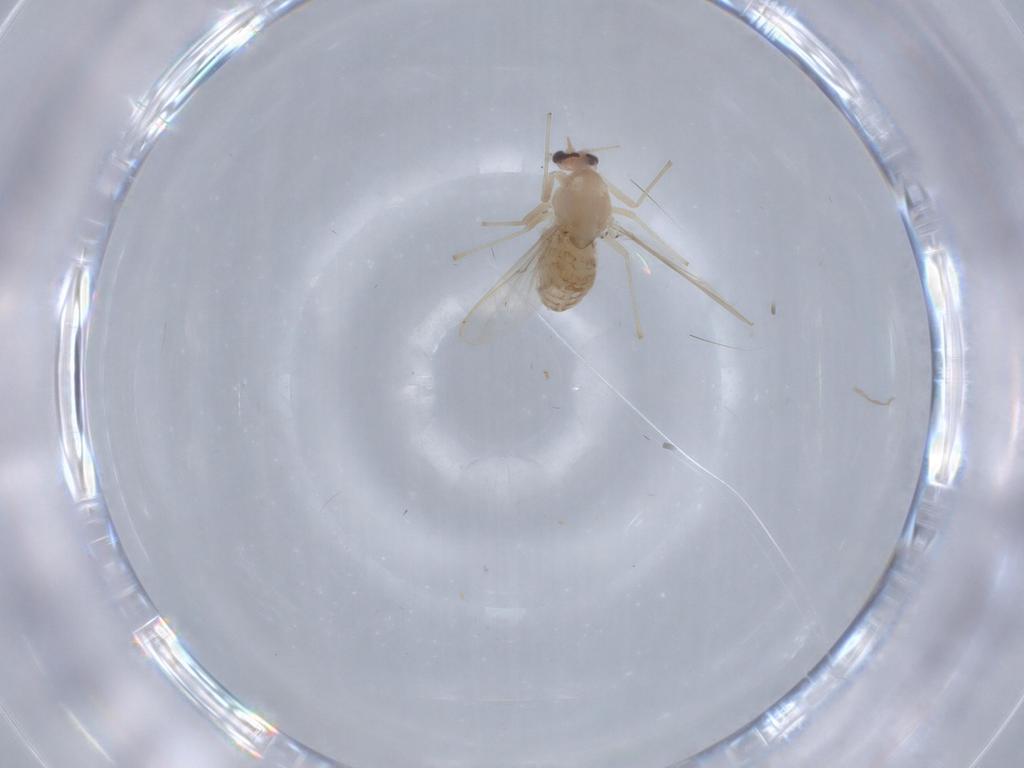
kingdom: Animalia
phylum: Arthropoda
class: Insecta
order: Diptera
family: Chironomidae
